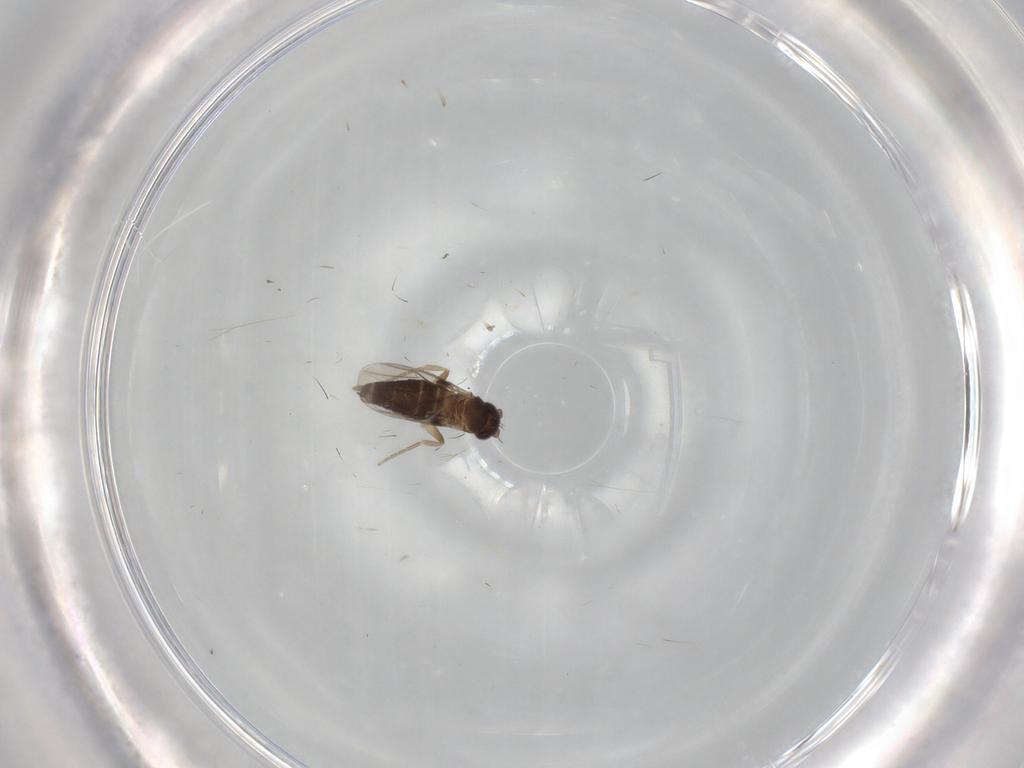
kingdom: Animalia
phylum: Arthropoda
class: Insecta
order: Diptera
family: Phoridae
